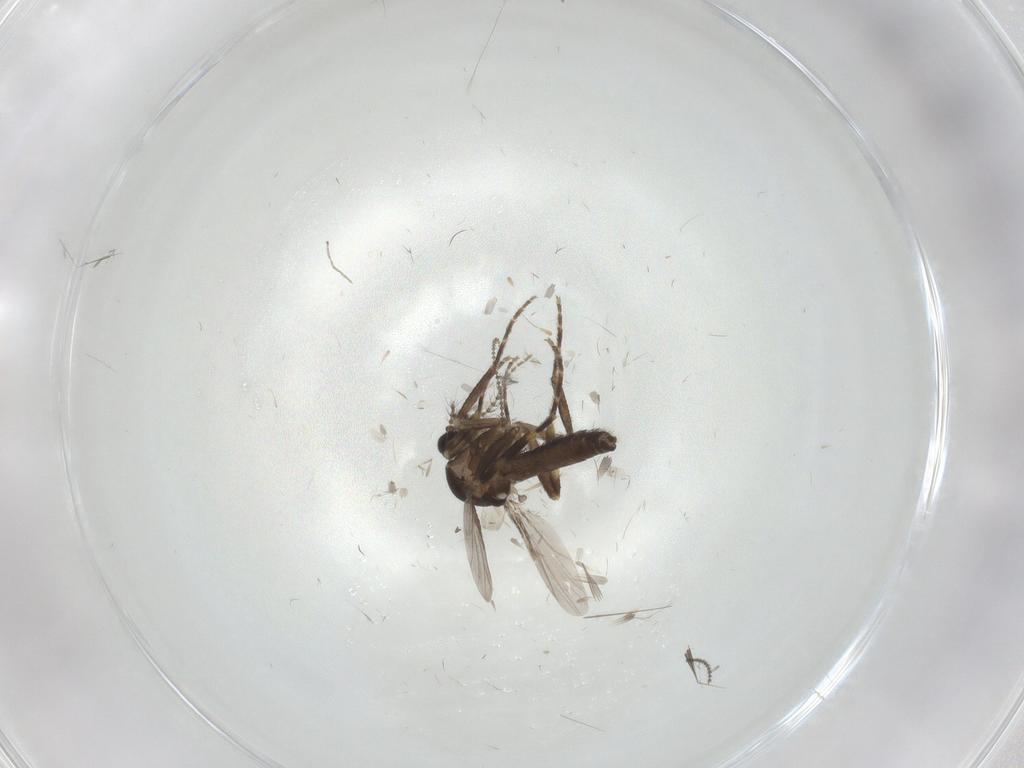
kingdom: Animalia
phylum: Arthropoda
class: Insecta
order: Diptera
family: Ceratopogonidae
